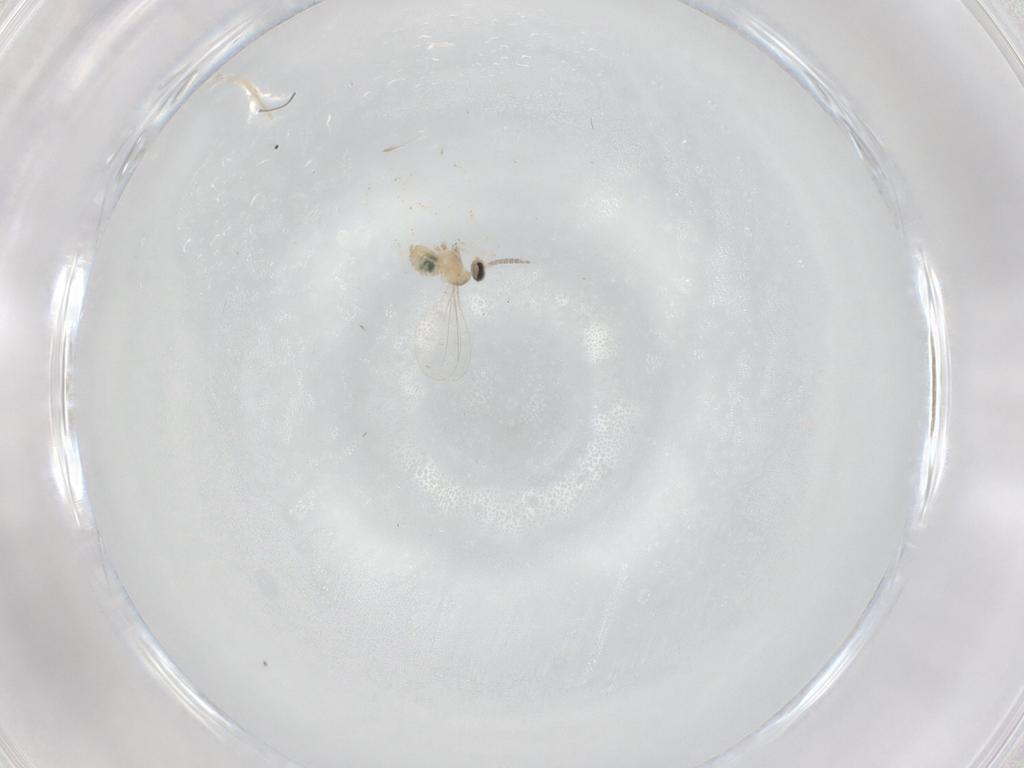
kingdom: Animalia
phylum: Arthropoda
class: Insecta
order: Diptera
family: Cecidomyiidae
